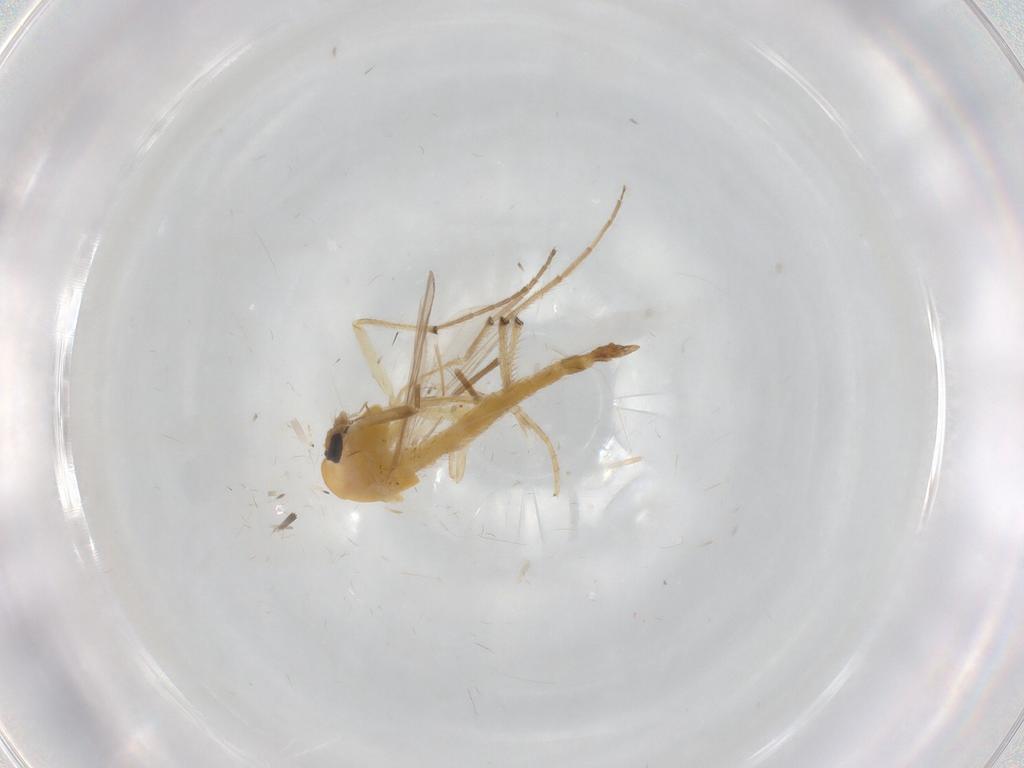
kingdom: Animalia
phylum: Arthropoda
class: Insecta
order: Diptera
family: Chironomidae
